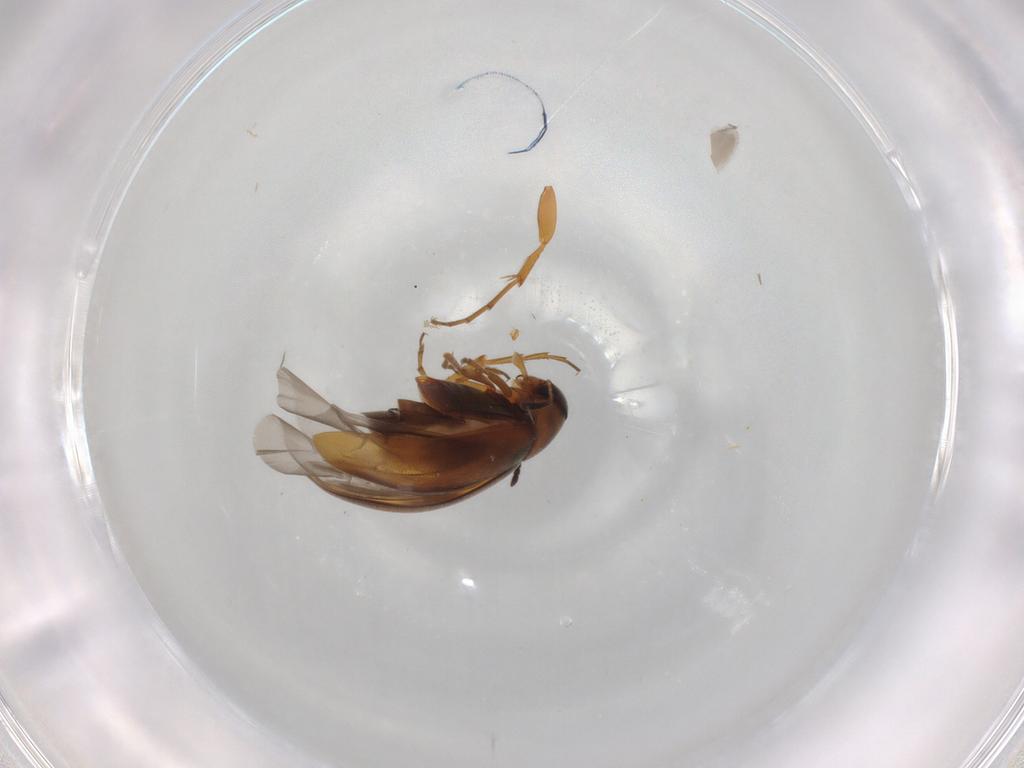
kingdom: Animalia
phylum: Arthropoda
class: Insecta
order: Coleoptera
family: Scraptiidae
